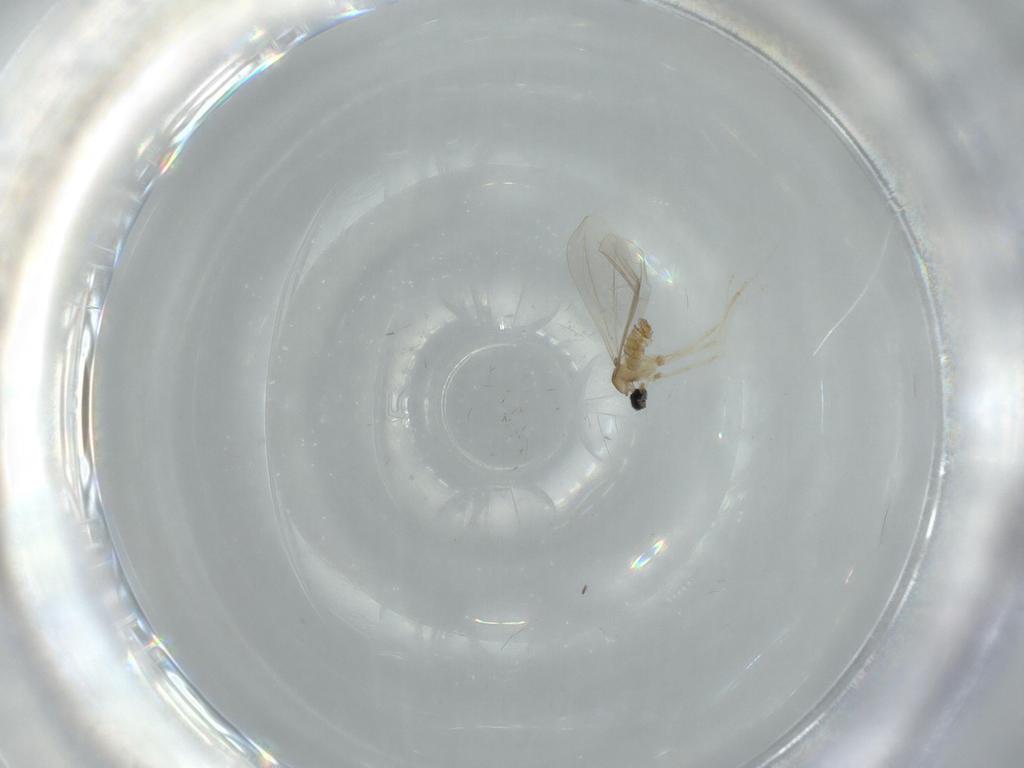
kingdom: Animalia
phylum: Arthropoda
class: Insecta
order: Diptera
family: Cecidomyiidae
